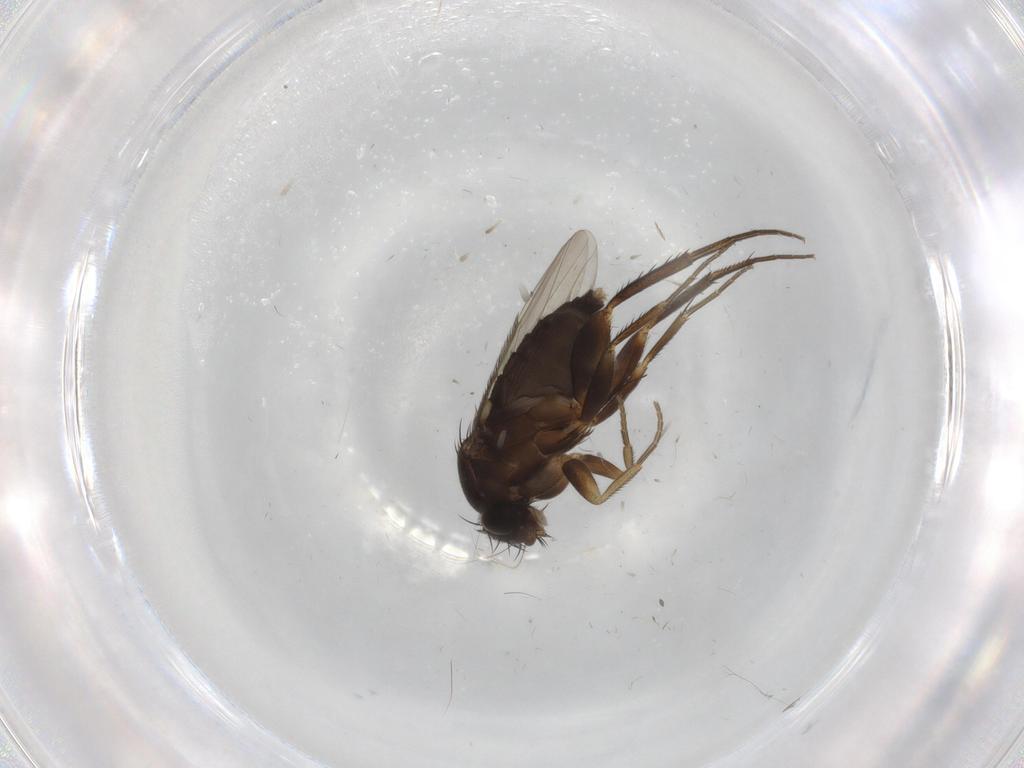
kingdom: Animalia
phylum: Arthropoda
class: Insecta
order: Diptera
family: Phoridae
